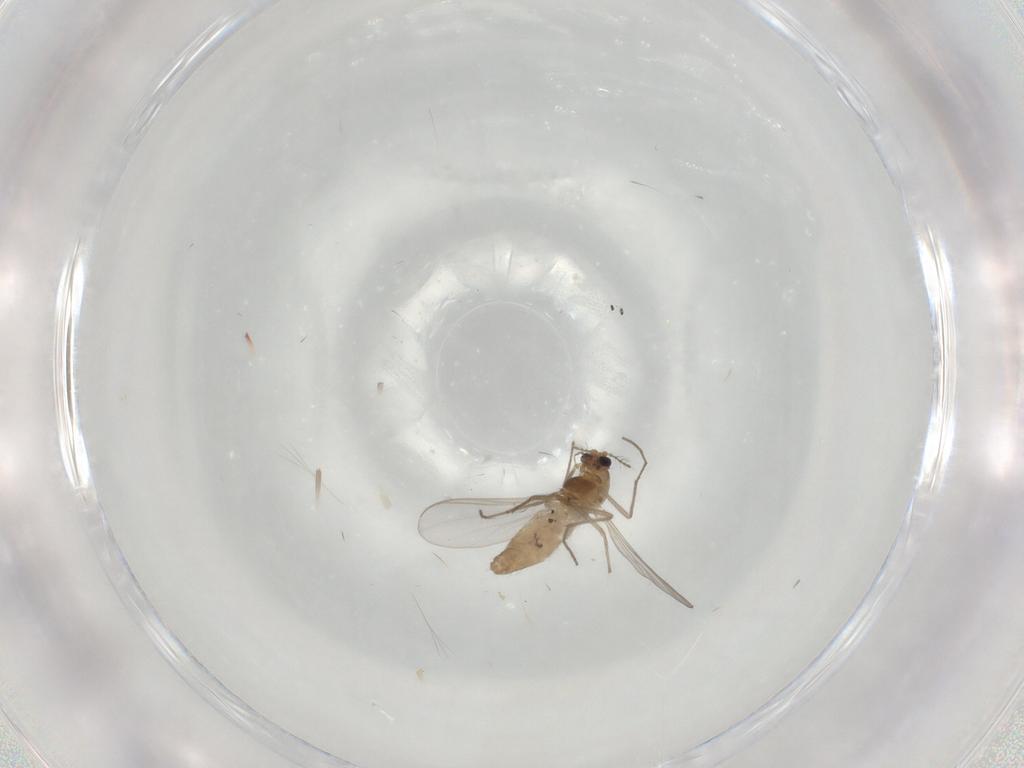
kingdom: Animalia
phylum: Arthropoda
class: Insecta
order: Diptera
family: Chironomidae
